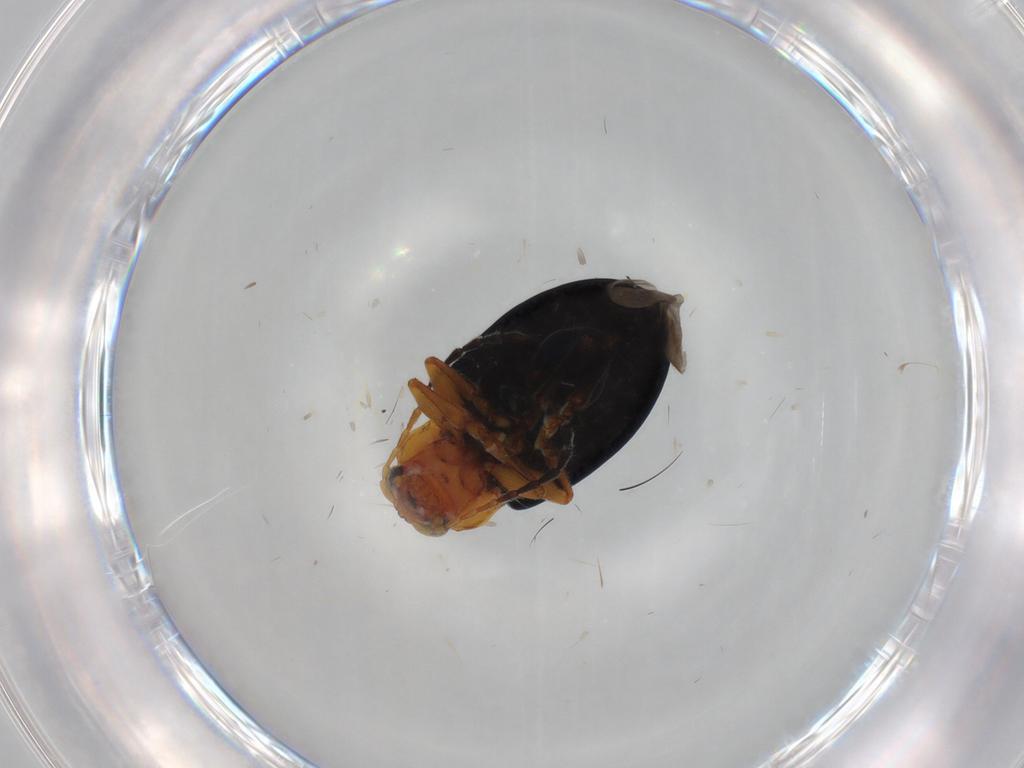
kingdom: Animalia
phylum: Arthropoda
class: Insecta
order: Coleoptera
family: Chrysomelidae
